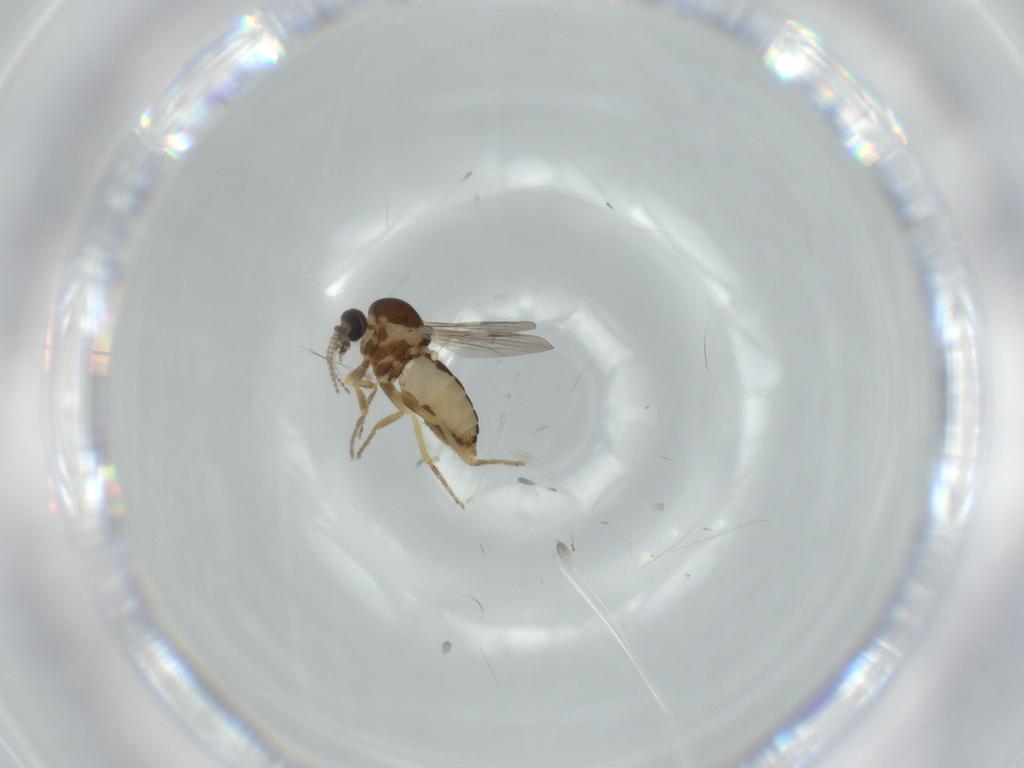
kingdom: Animalia
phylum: Arthropoda
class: Insecta
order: Diptera
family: Ceratopogonidae
